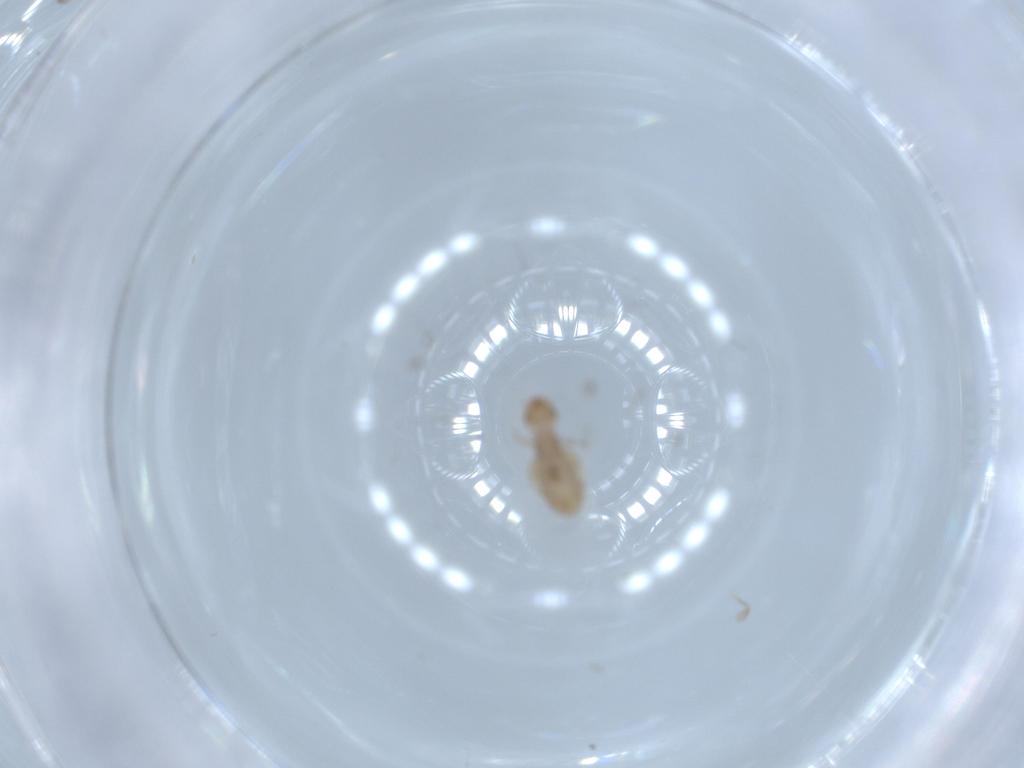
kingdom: Animalia
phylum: Arthropoda
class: Insecta
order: Psocodea
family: Liposcelididae
